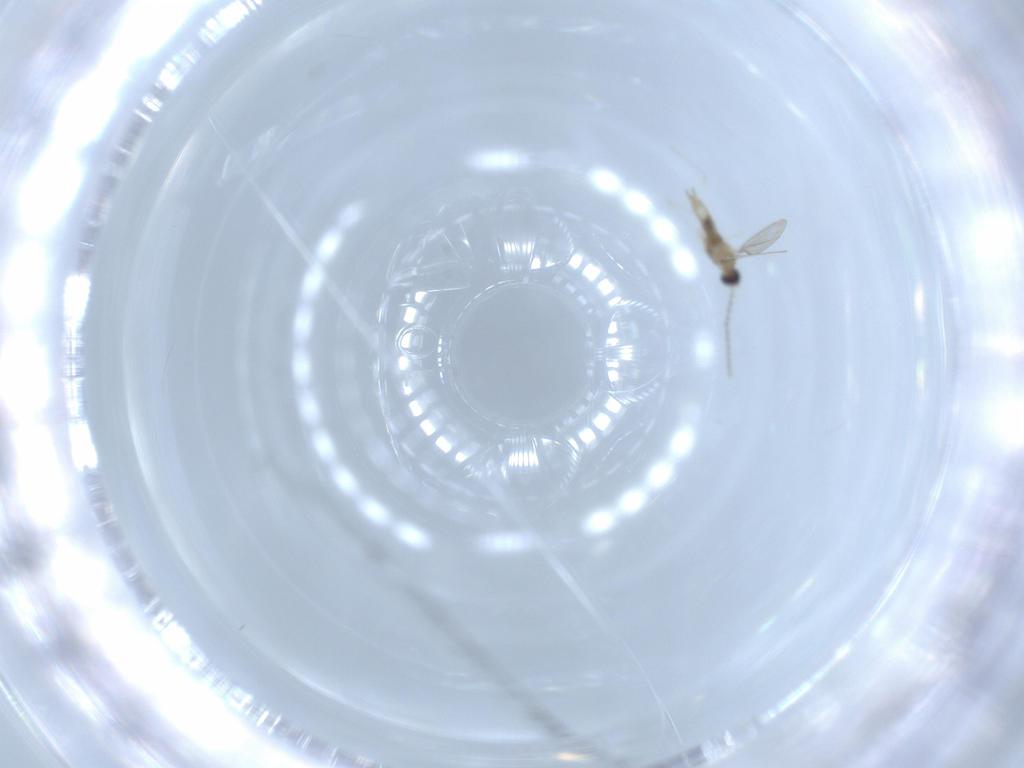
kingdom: Animalia
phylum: Arthropoda
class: Insecta
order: Diptera
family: Cecidomyiidae
